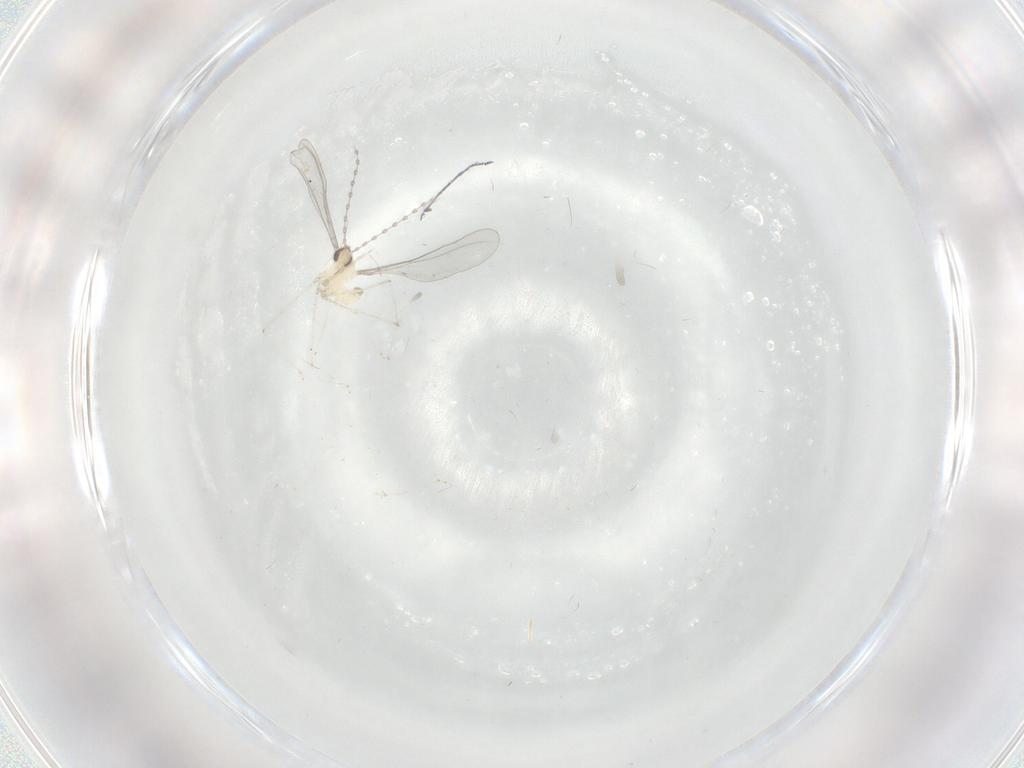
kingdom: Animalia
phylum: Arthropoda
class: Insecta
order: Diptera
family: Cecidomyiidae
